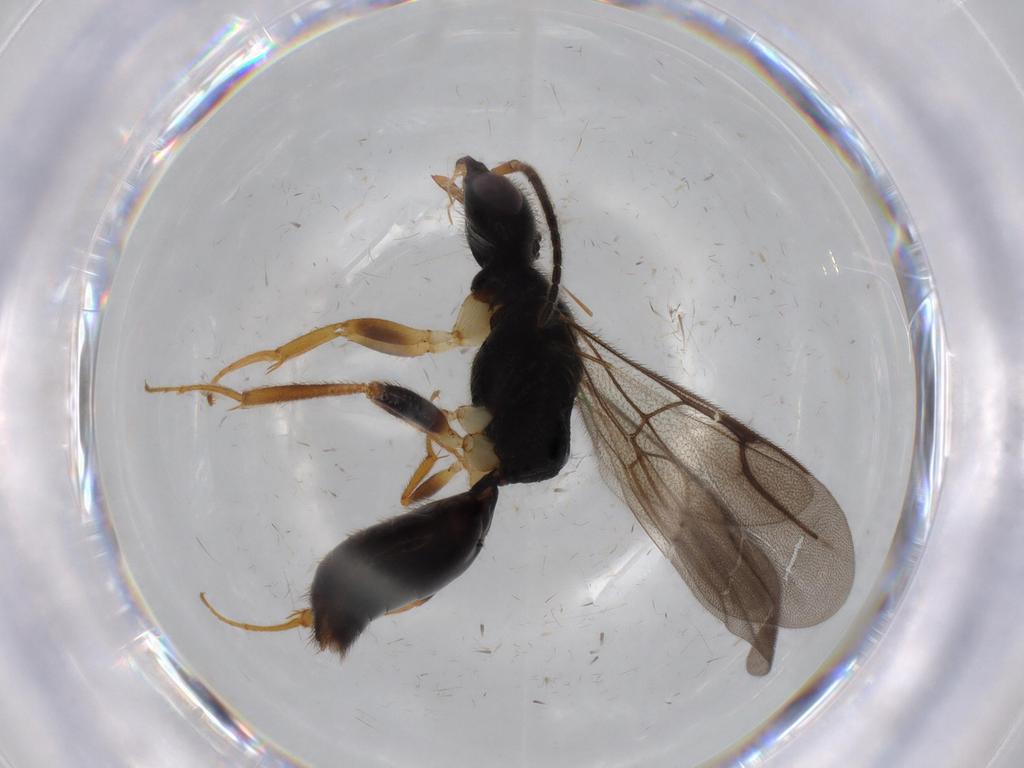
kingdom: Animalia
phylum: Arthropoda
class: Insecta
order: Hymenoptera
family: Bethylidae
